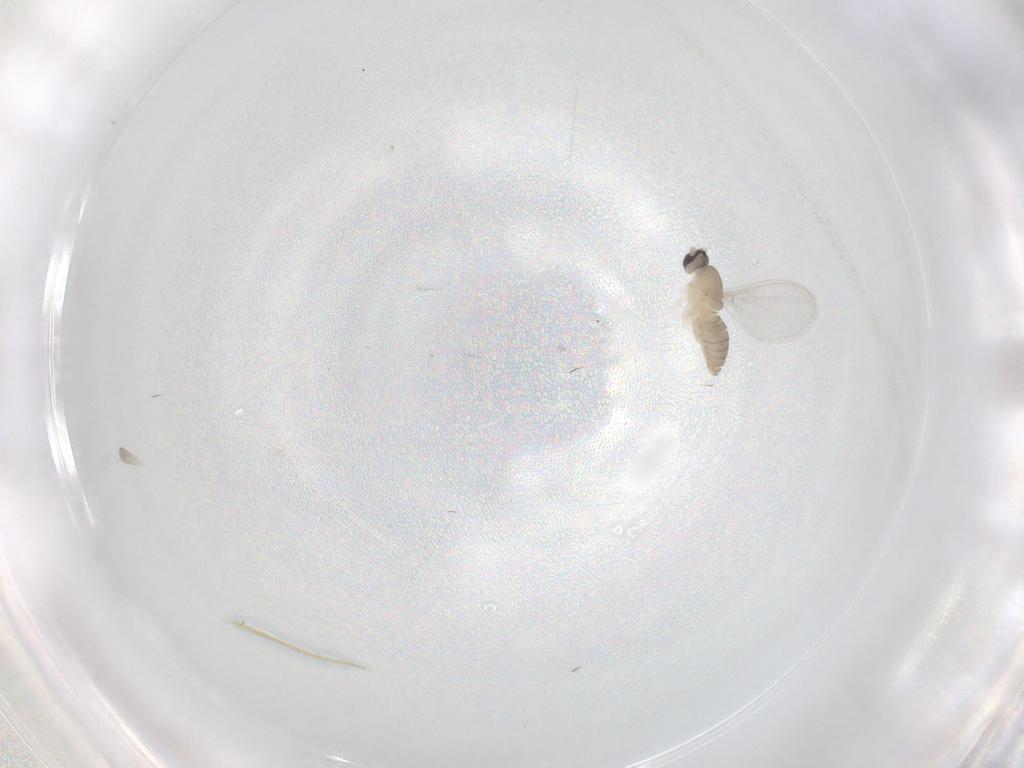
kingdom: Animalia
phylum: Arthropoda
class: Insecta
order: Diptera
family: Cecidomyiidae
